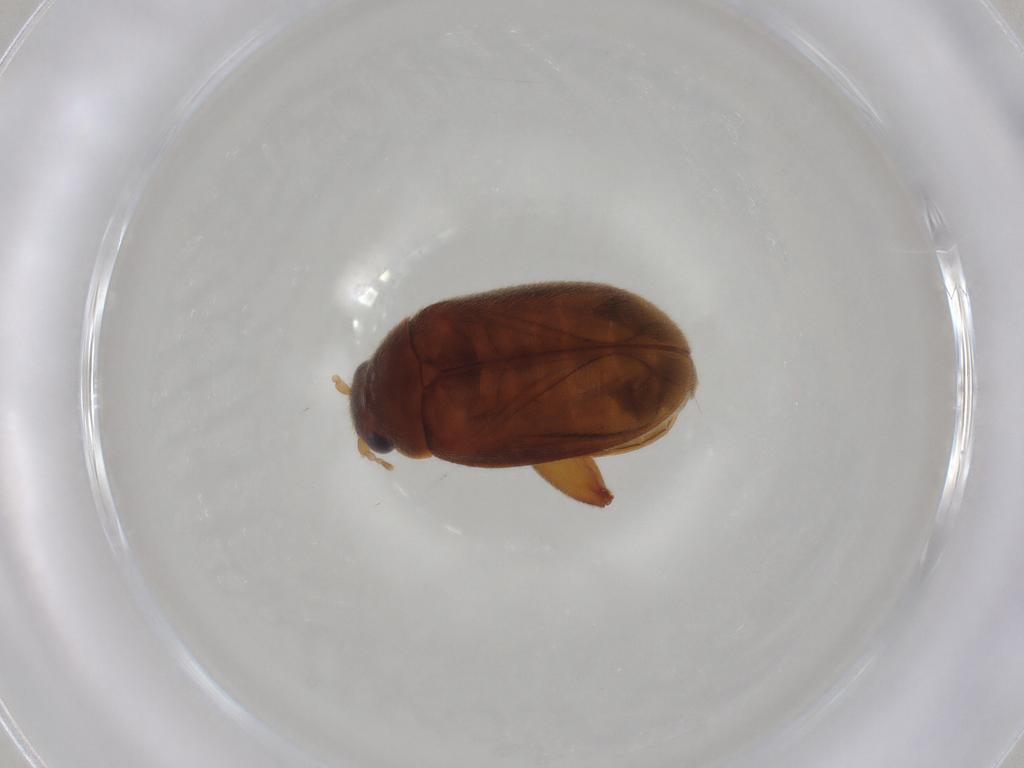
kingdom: Animalia
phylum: Arthropoda
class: Insecta
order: Coleoptera
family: Scirtidae
